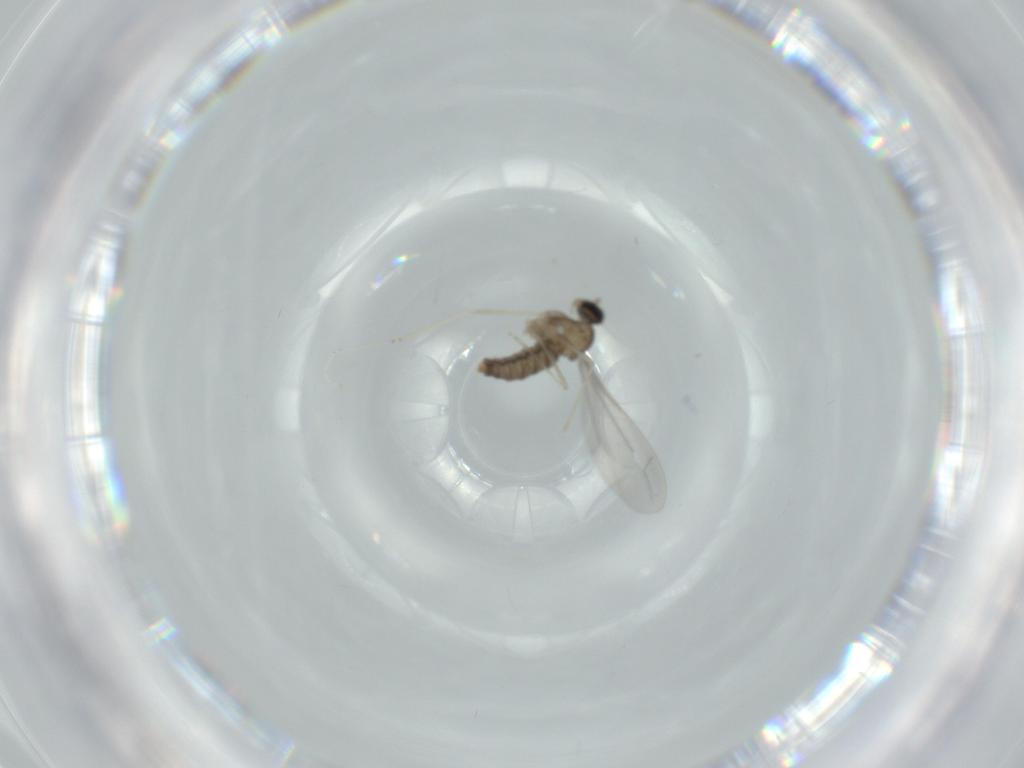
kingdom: Animalia
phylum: Arthropoda
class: Insecta
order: Diptera
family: Cecidomyiidae
